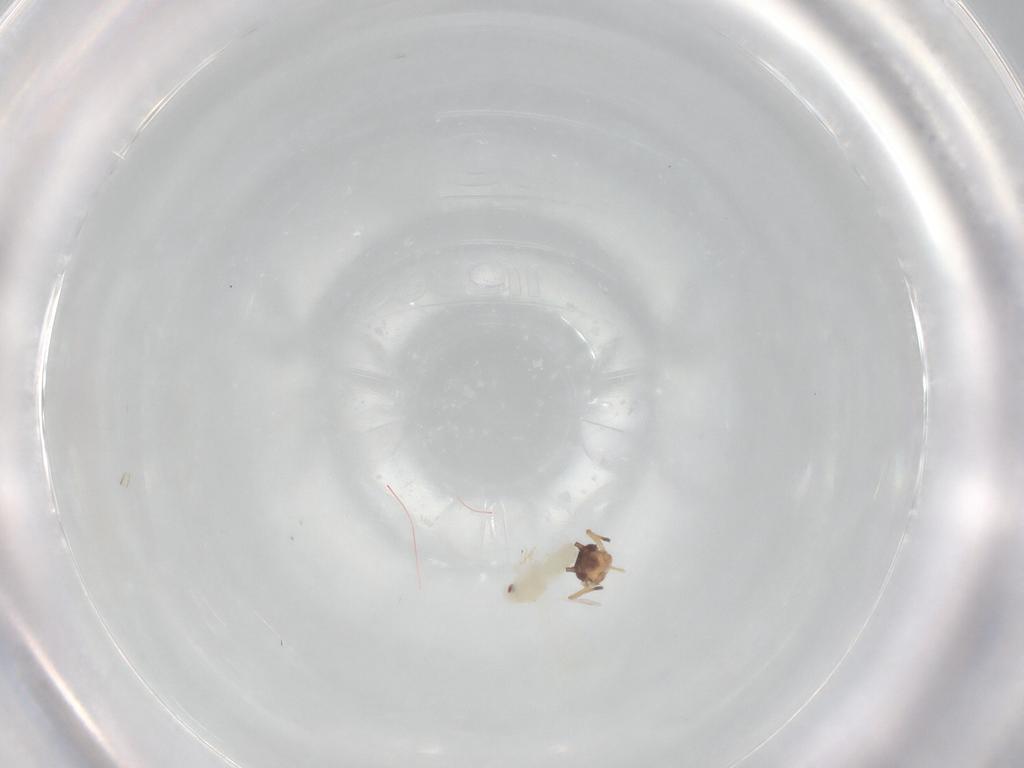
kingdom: Animalia
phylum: Arthropoda
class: Insecta
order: Hemiptera
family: Aphididae
